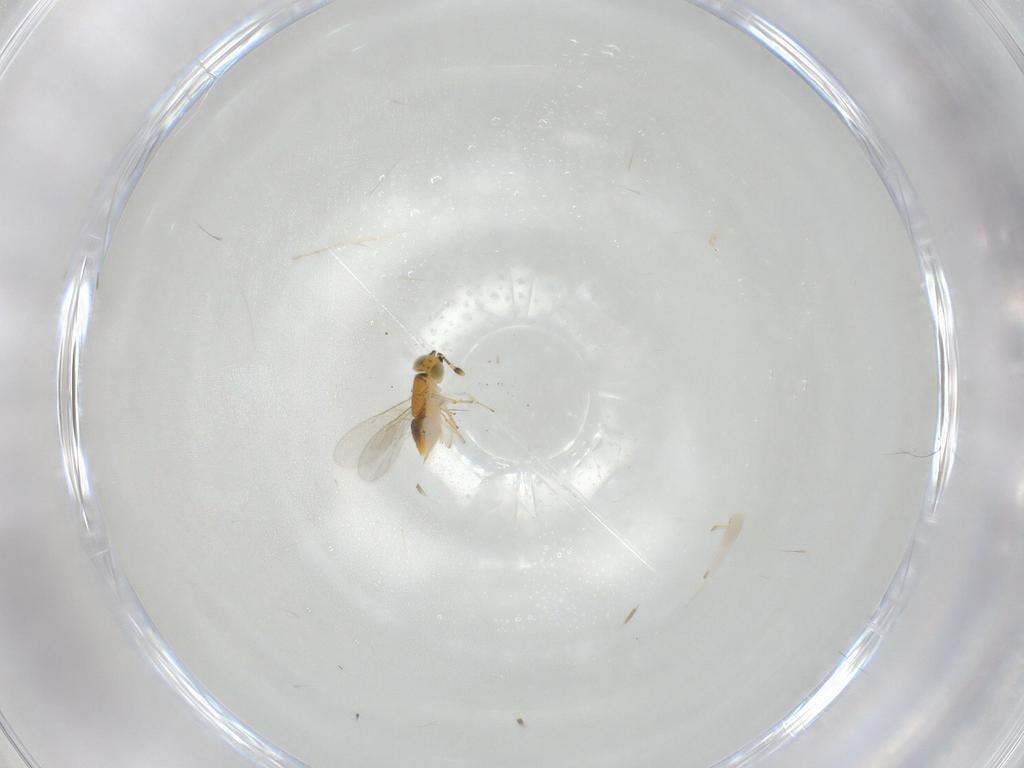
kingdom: Animalia
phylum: Arthropoda
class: Insecta
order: Hymenoptera
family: Encyrtidae
